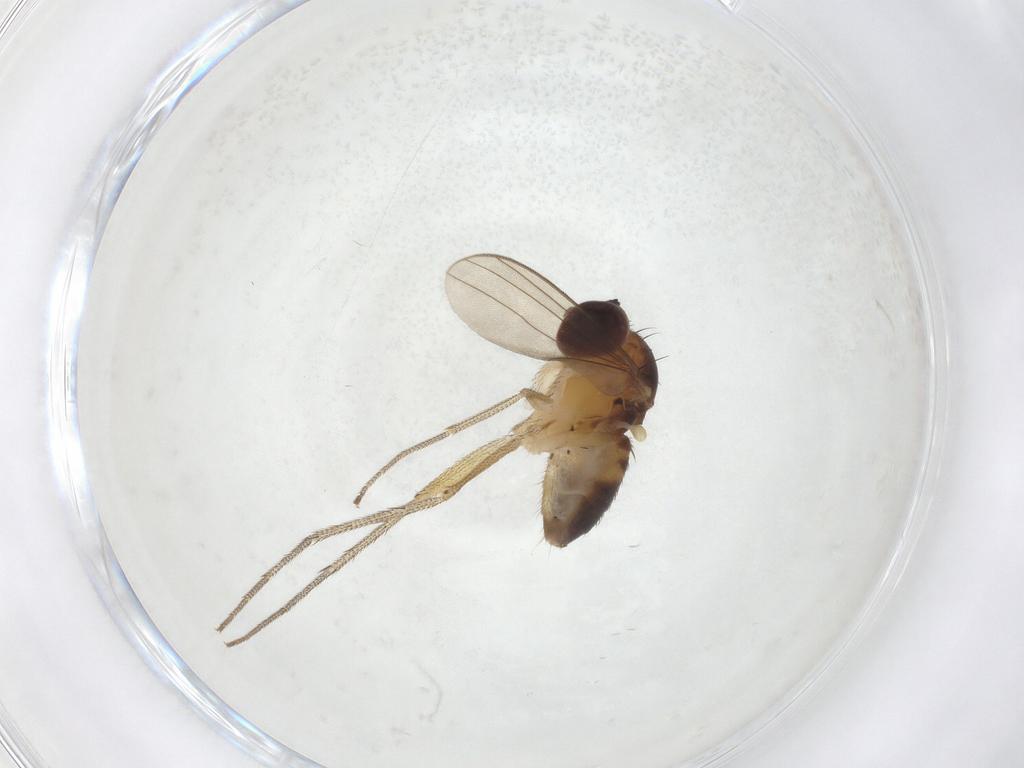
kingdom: Animalia
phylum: Arthropoda
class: Insecta
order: Diptera
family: Dolichopodidae
